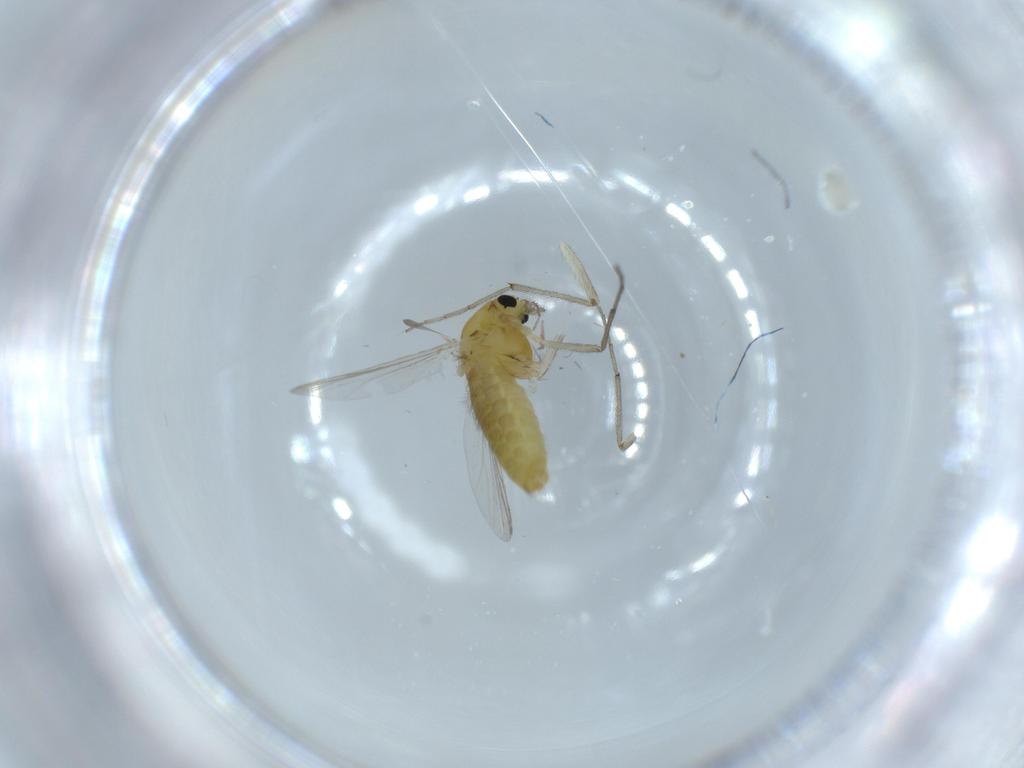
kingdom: Animalia
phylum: Arthropoda
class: Insecta
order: Diptera
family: Chironomidae
